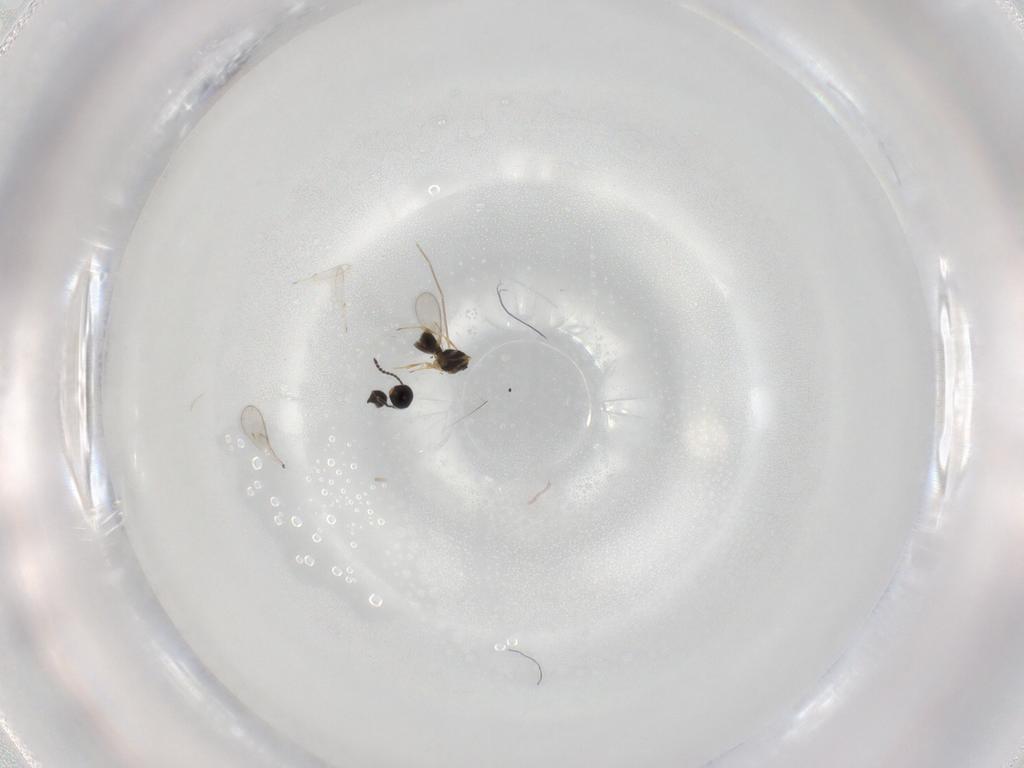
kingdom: Animalia
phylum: Arthropoda
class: Insecta
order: Hymenoptera
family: Scelionidae
